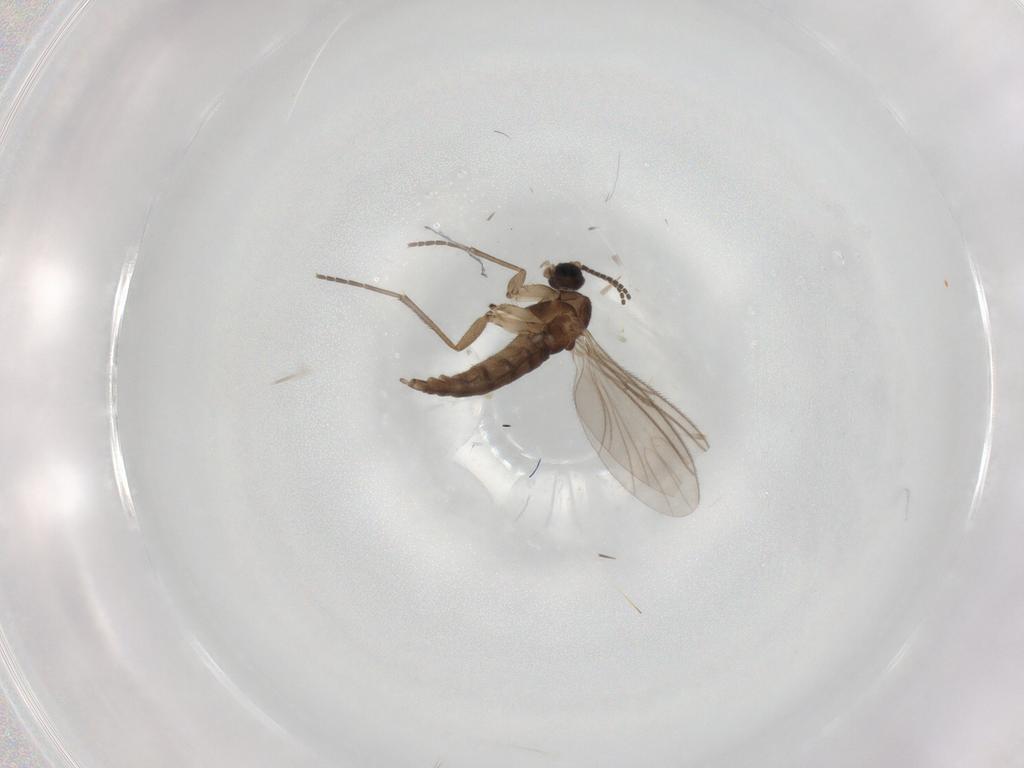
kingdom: Animalia
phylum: Arthropoda
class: Insecta
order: Diptera
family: Sciaridae
